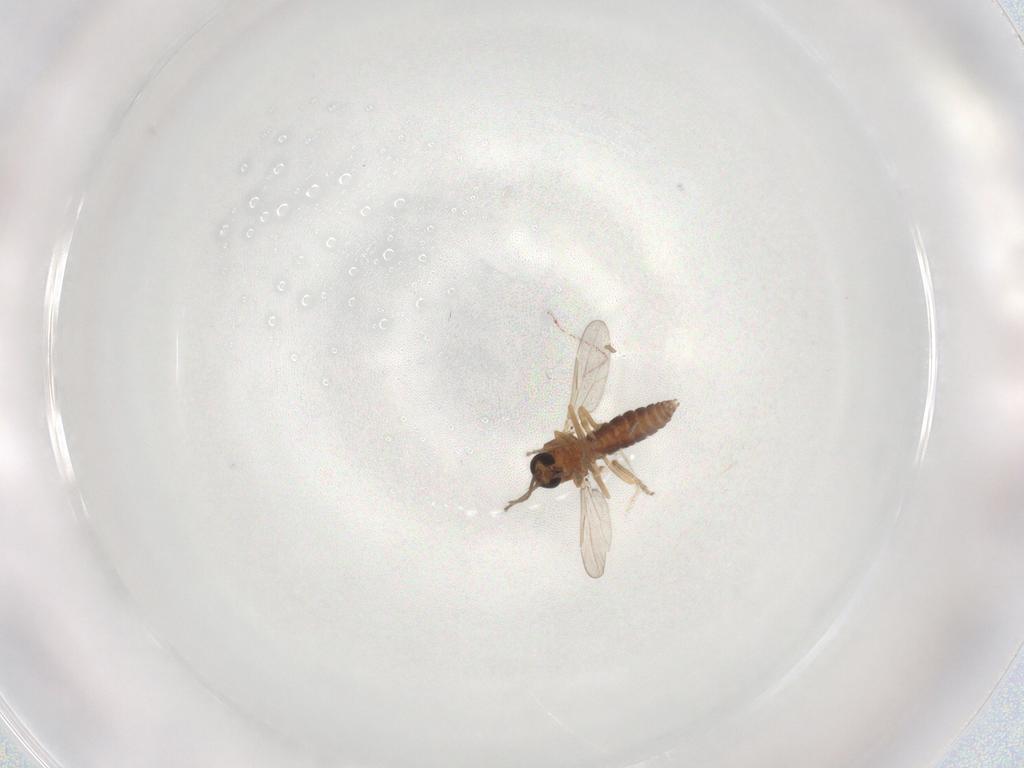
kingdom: Animalia
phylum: Arthropoda
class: Insecta
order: Diptera
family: Ceratopogonidae
